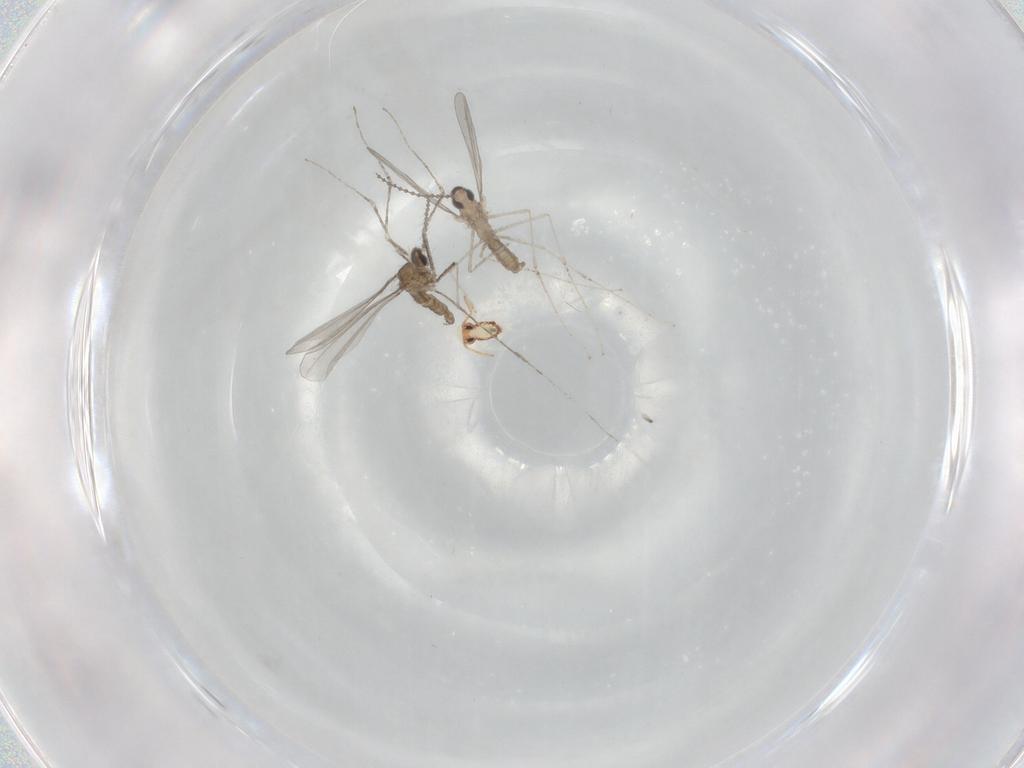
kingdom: Animalia
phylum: Arthropoda
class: Insecta
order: Diptera
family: Cecidomyiidae
